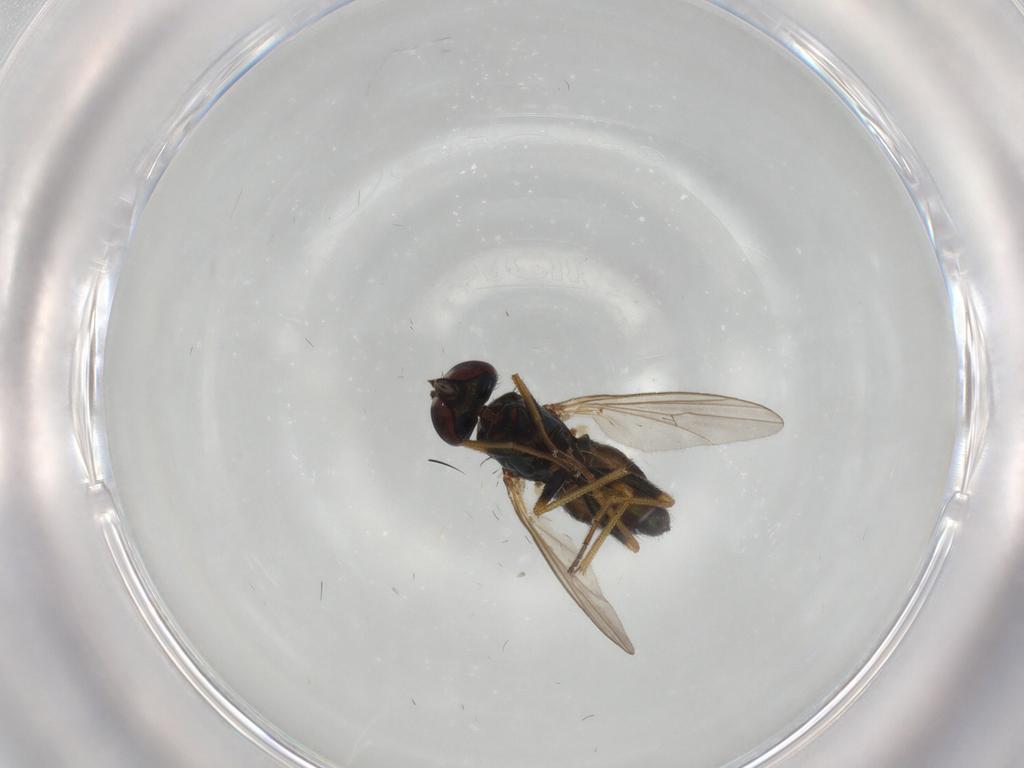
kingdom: Animalia
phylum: Arthropoda
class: Insecta
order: Diptera
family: Dolichopodidae
